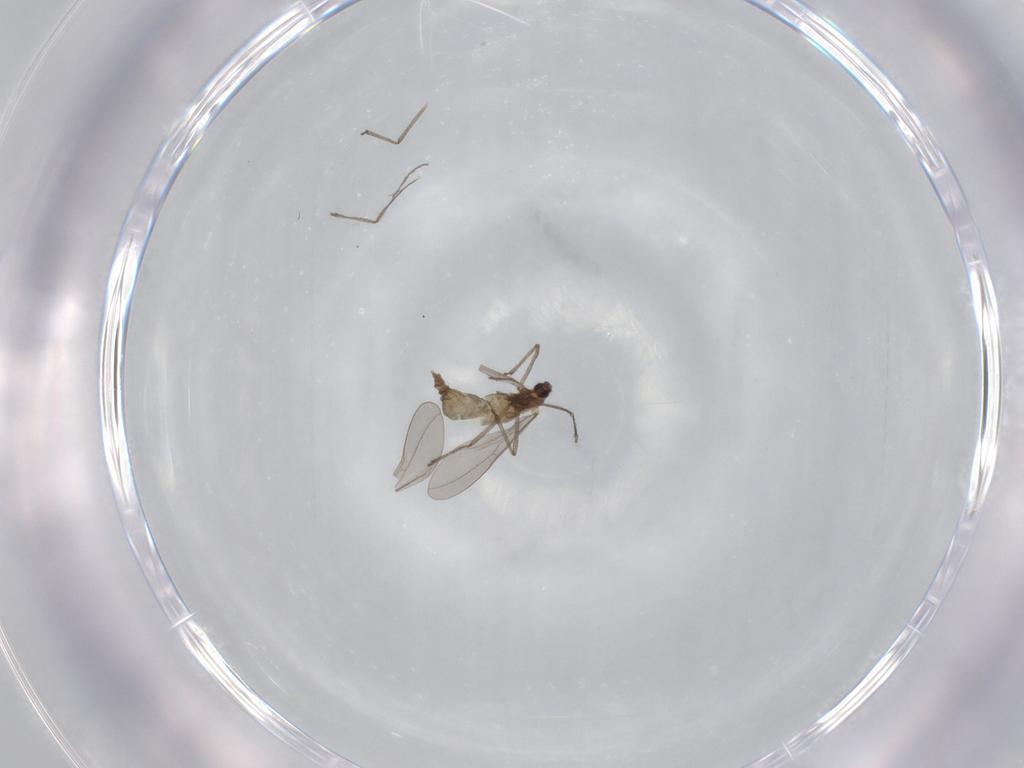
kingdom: Animalia
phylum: Arthropoda
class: Insecta
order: Diptera
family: Cecidomyiidae
